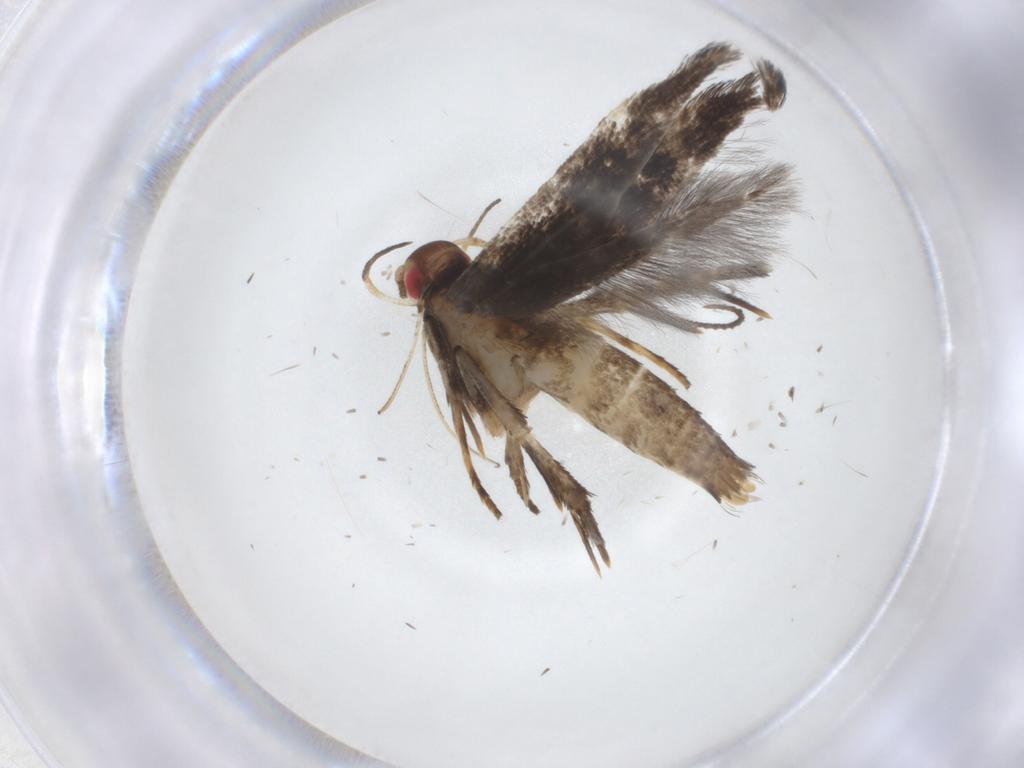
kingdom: Animalia
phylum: Arthropoda
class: Insecta
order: Lepidoptera
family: Gelechiidae
